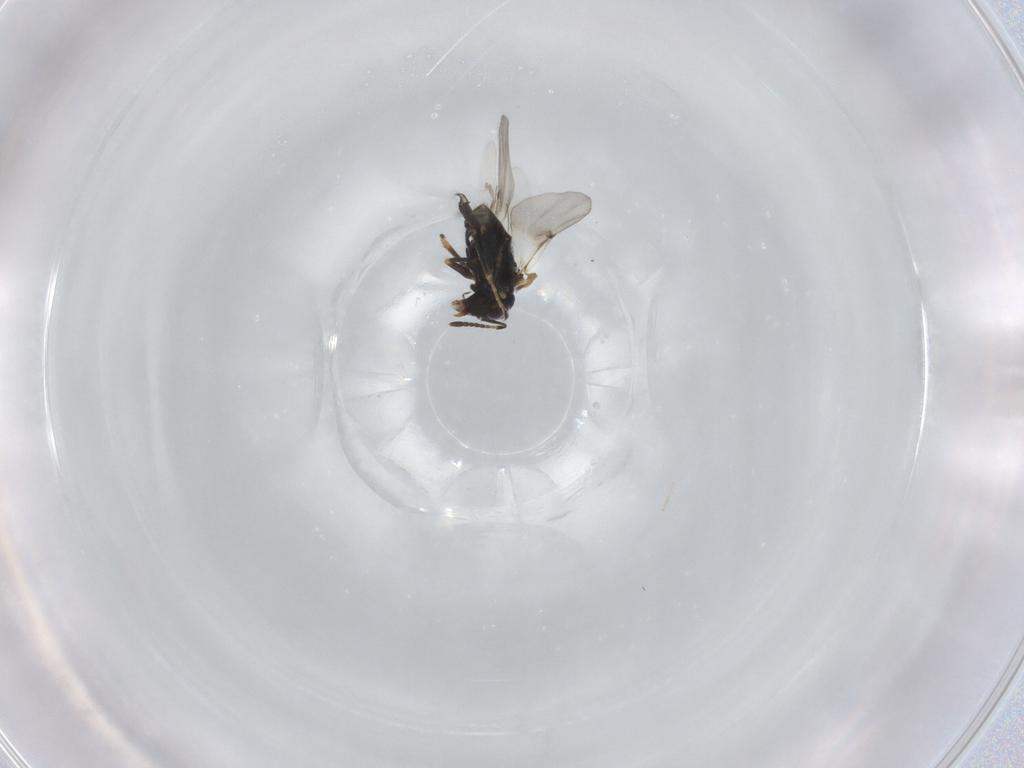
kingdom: Animalia
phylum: Arthropoda
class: Insecta
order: Hymenoptera
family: Encyrtidae
